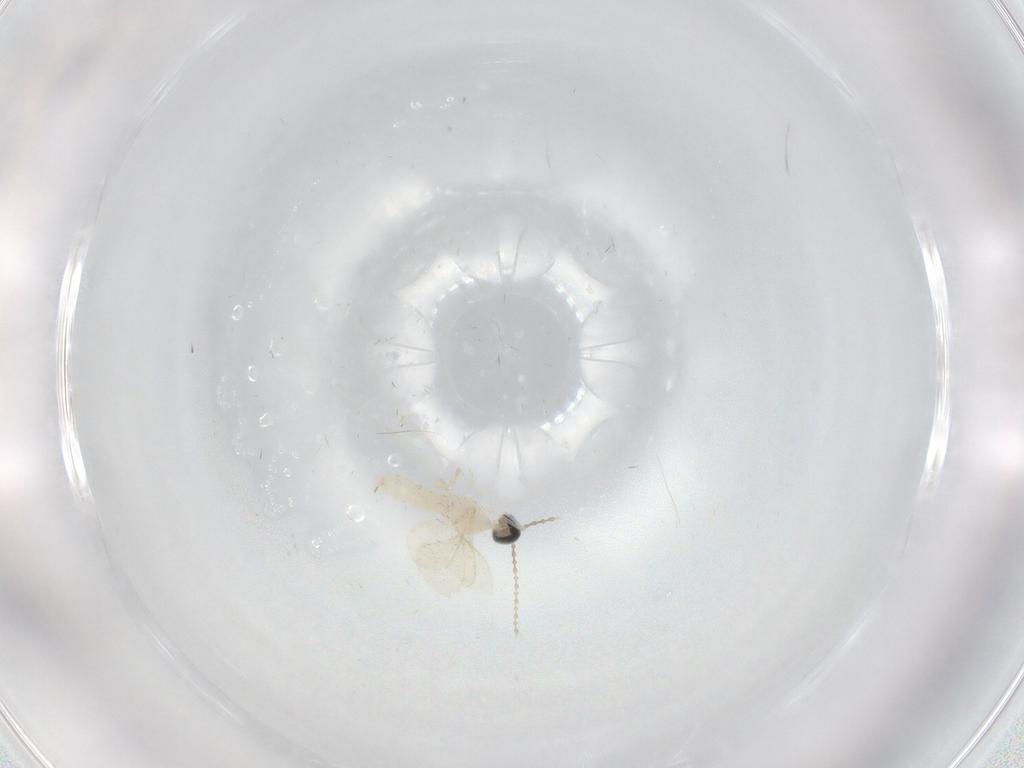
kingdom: Animalia
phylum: Arthropoda
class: Insecta
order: Diptera
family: Cecidomyiidae
